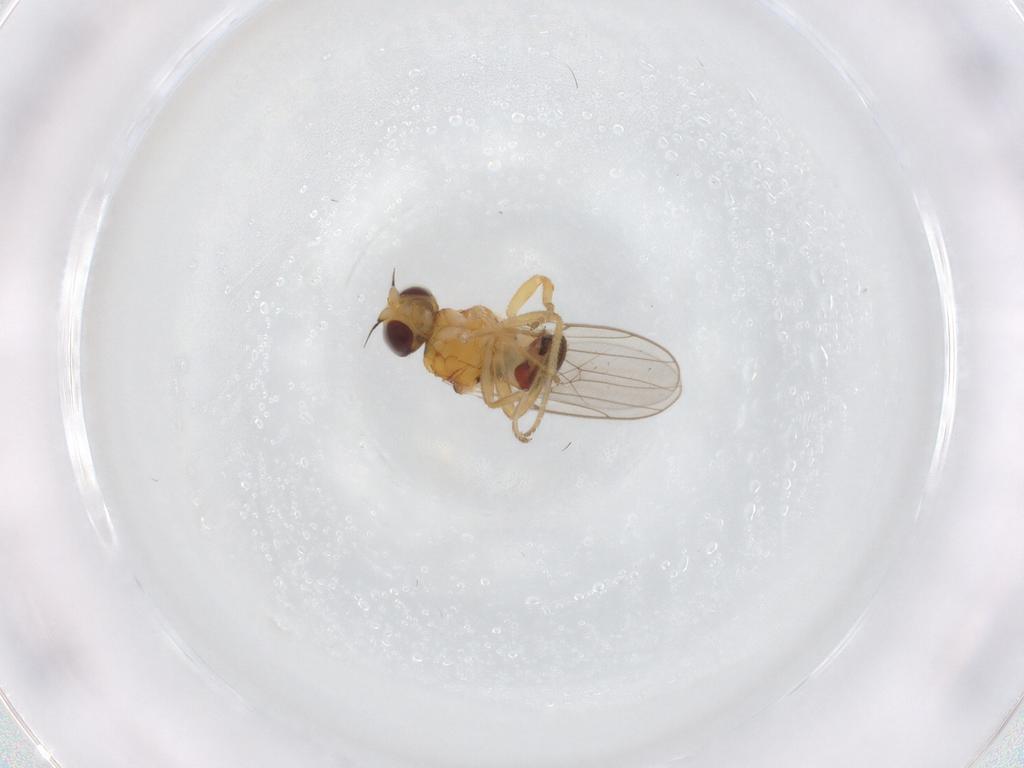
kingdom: Animalia
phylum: Arthropoda
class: Insecta
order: Diptera
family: Chloropidae
